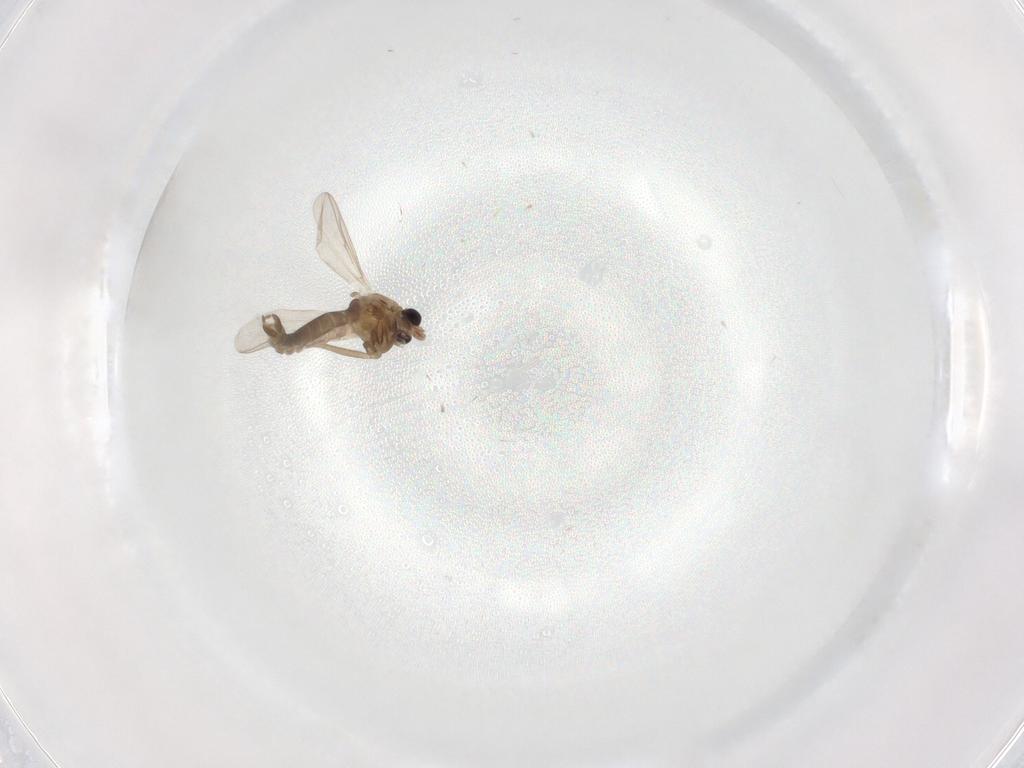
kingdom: Animalia
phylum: Arthropoda
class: Insecta
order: Diptera
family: Chironomidae
